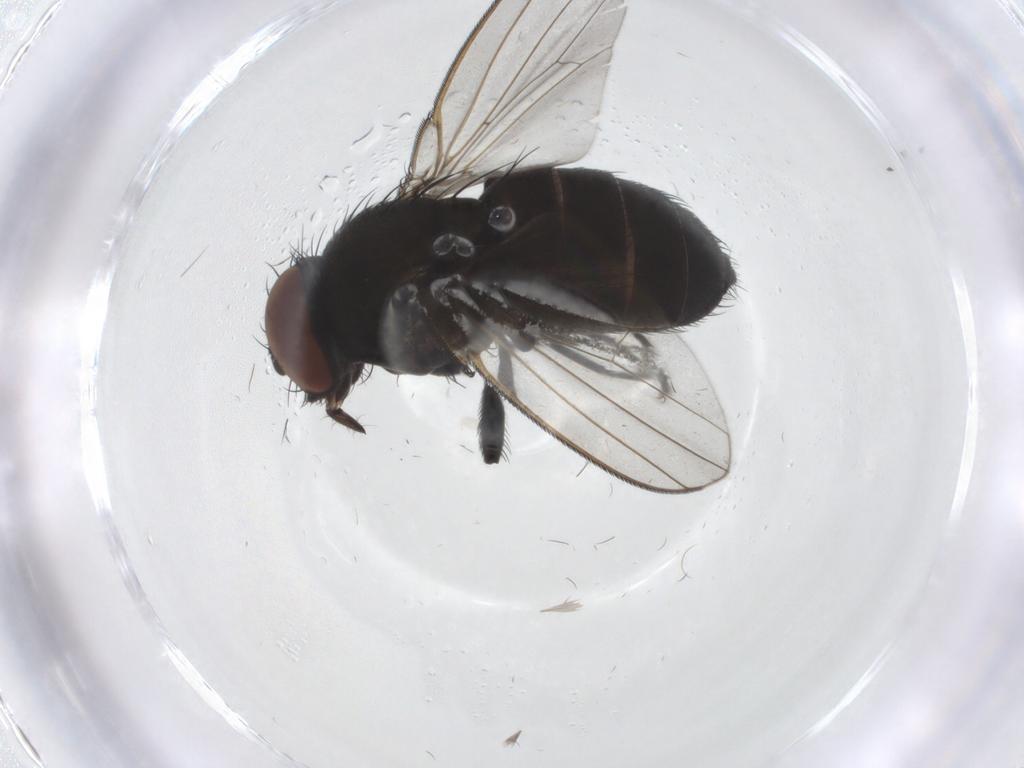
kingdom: Animalia
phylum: Arthropoda
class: Insecta
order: Diptera
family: Milichiidae
